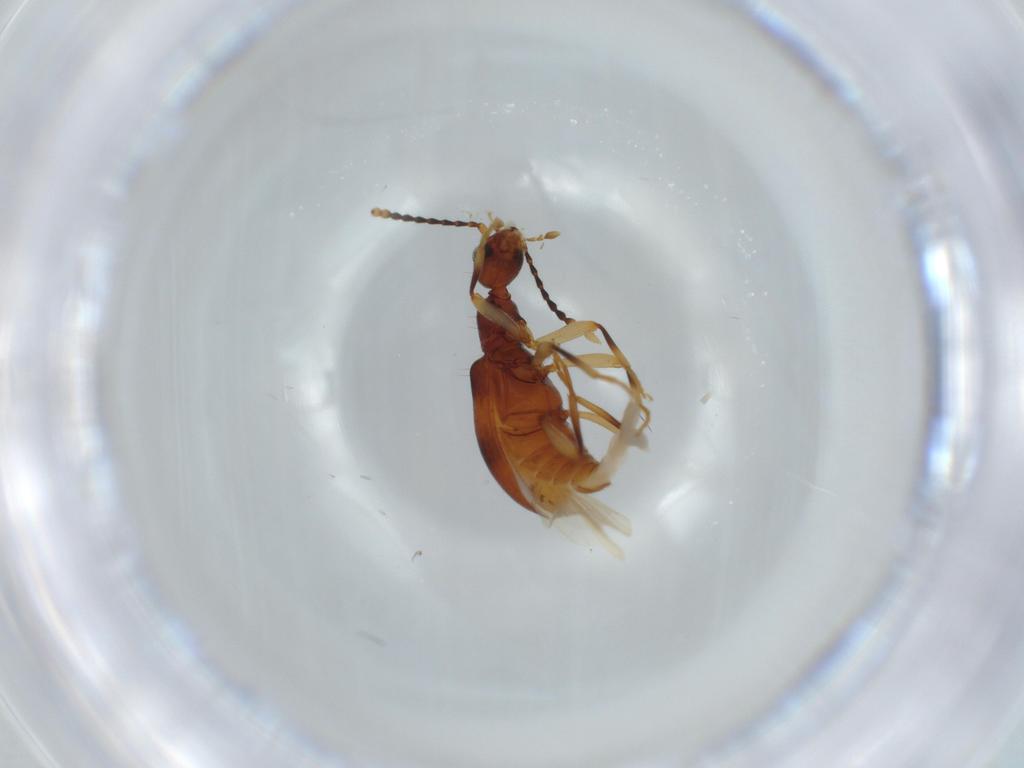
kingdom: Animalia
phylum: Arthropoda
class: Insecta
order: Coleoptera
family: Anthicidae
